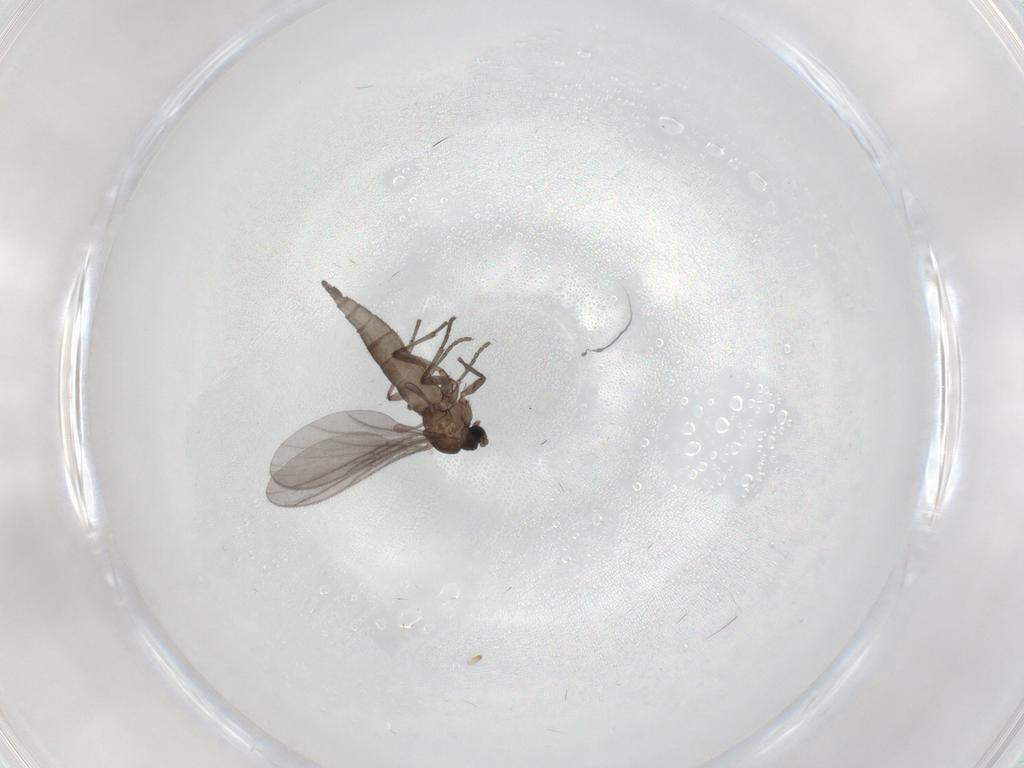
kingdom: Animalia
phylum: Arthropoda
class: Insecta
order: Diptera
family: Sciaridae
